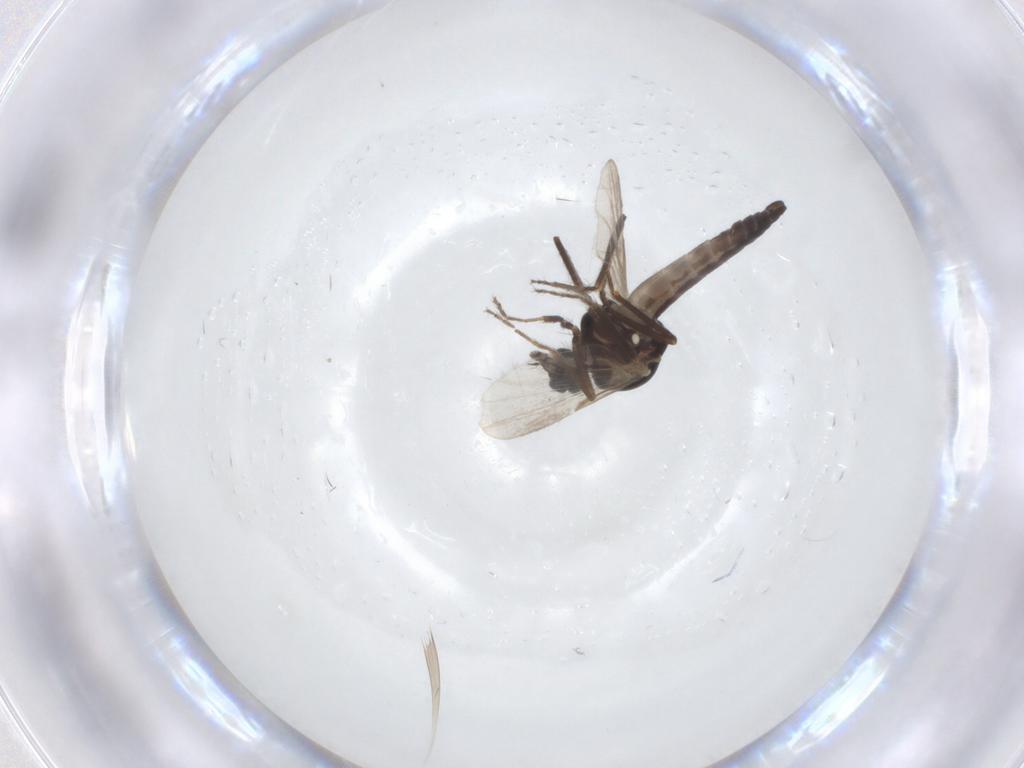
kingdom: Animalia
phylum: Arthropoda
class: Insecta
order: Diptera
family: Ceratopogonidae
